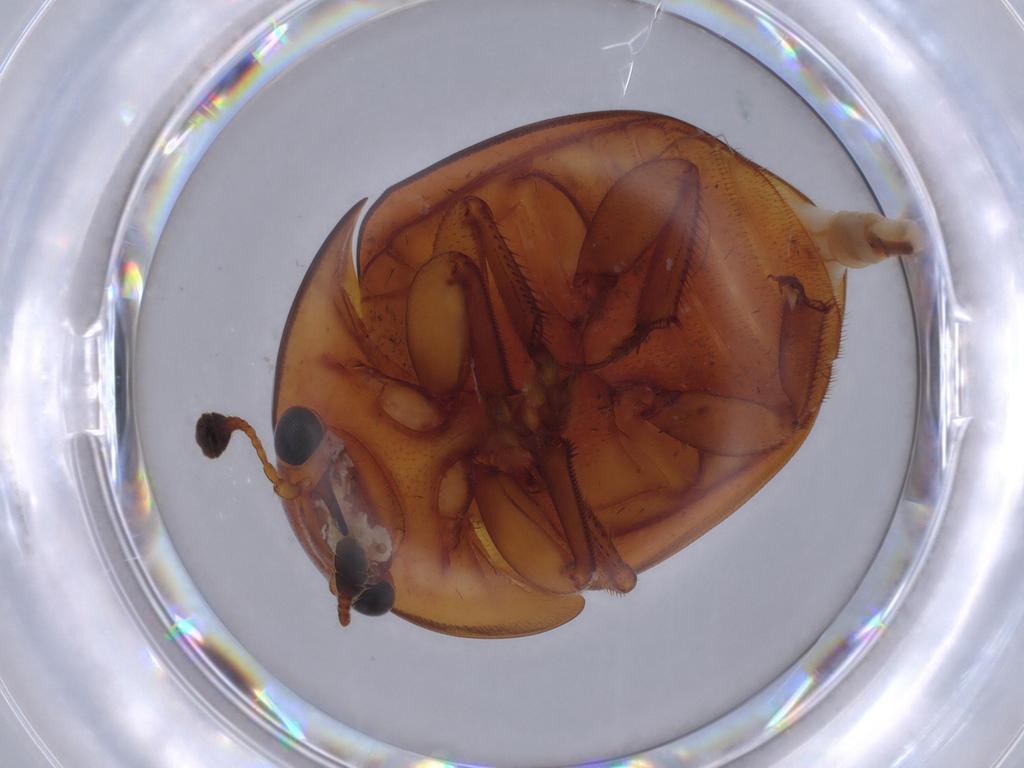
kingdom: Animalia
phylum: Arthropoda
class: Insecta
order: Coleoptera
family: Nitidulidae
